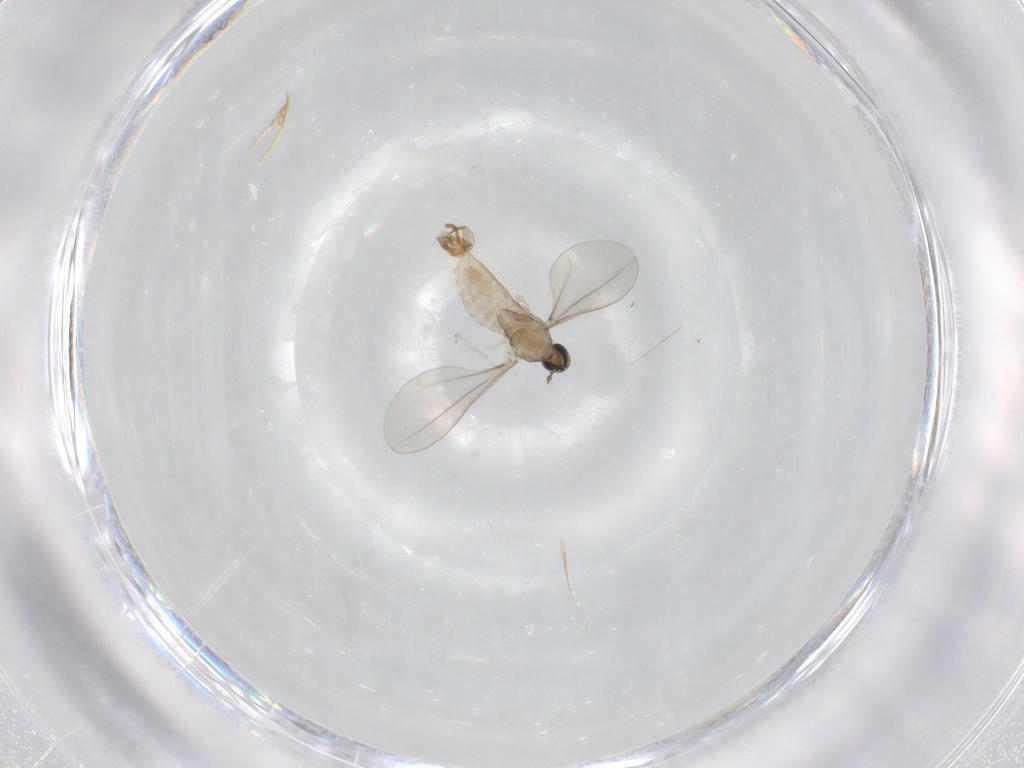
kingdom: Animalia
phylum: Arthropoda
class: Insecta
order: Diptera
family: Cecidomyiidae
